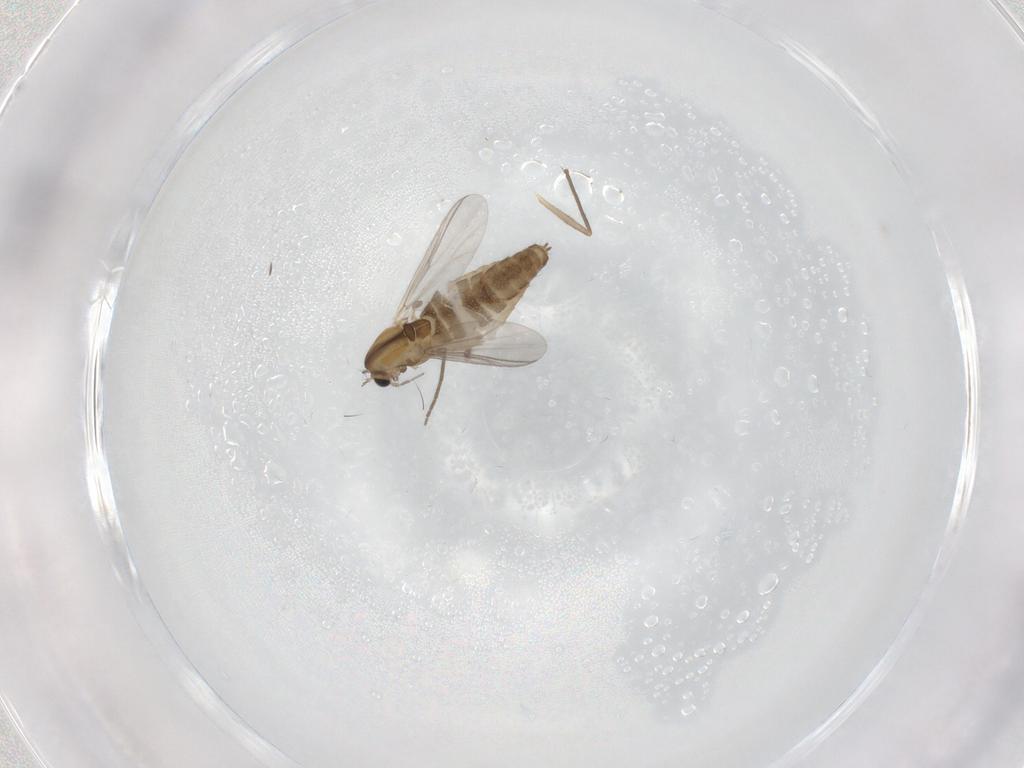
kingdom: Animalia
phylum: Arthropoda
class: Insecta
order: Diptera
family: Chironomidae
